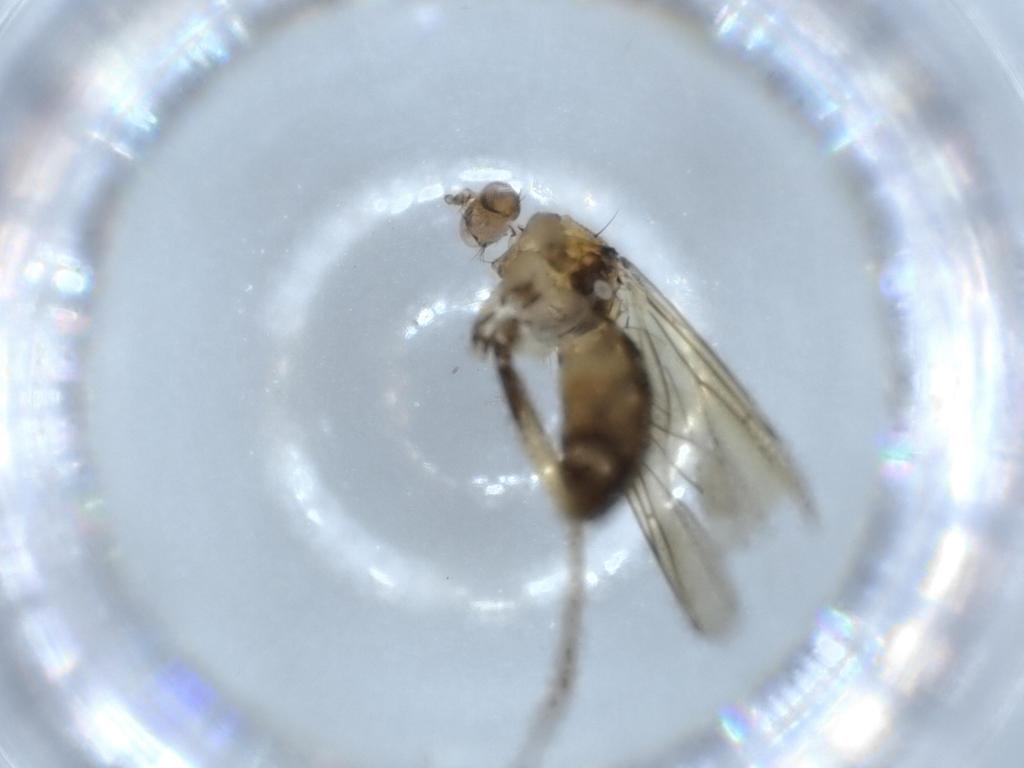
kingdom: Animalia
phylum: Arthropoda
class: Insecta
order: Diptera
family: Mycetophilidae
